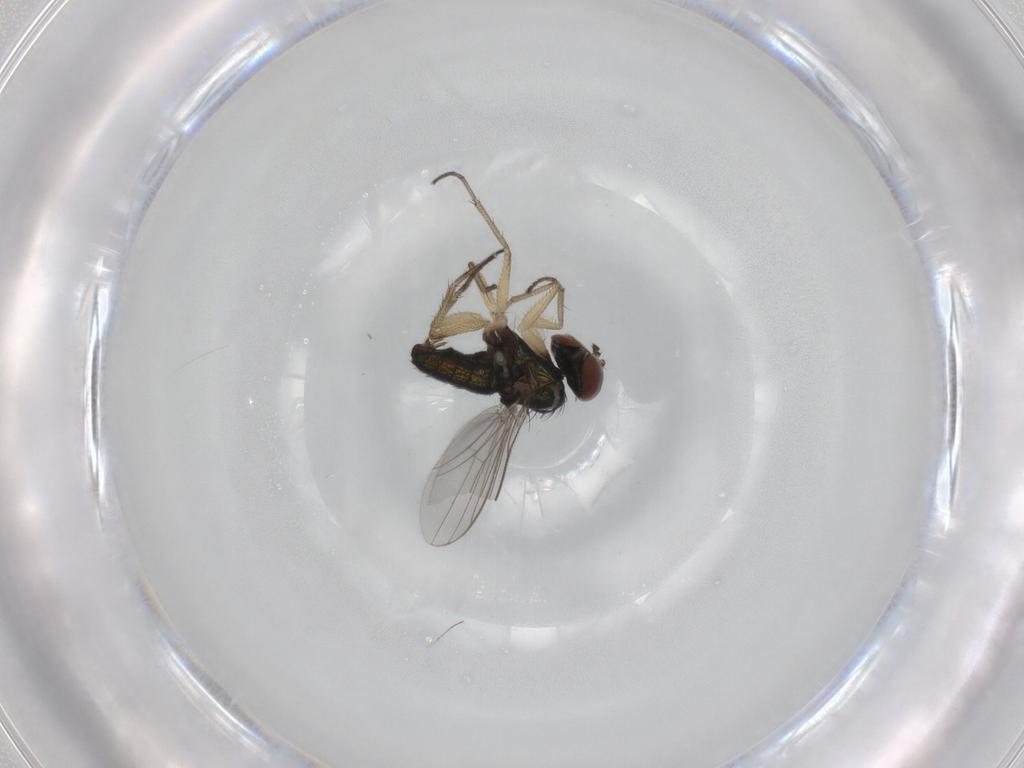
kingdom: Animalia
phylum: Arthropoda
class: Insecta
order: Diptera
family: Dolichopodidae
